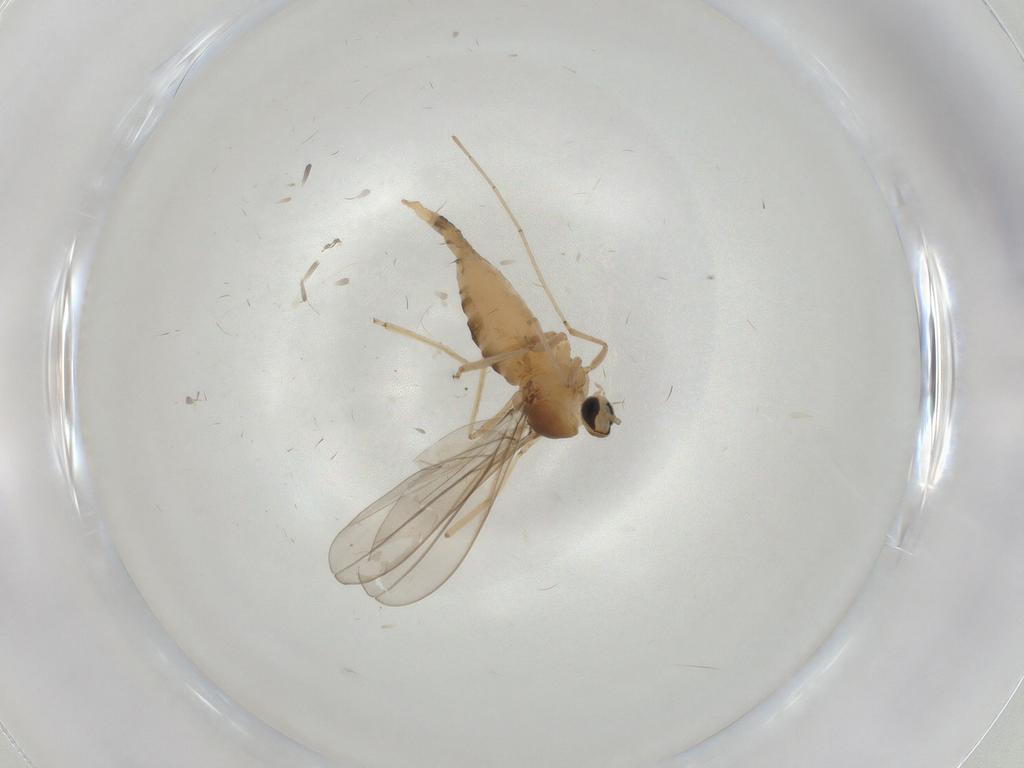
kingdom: Animalia
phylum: Arthropoda
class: Insecta
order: Diptera
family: Cecidomyiidae
